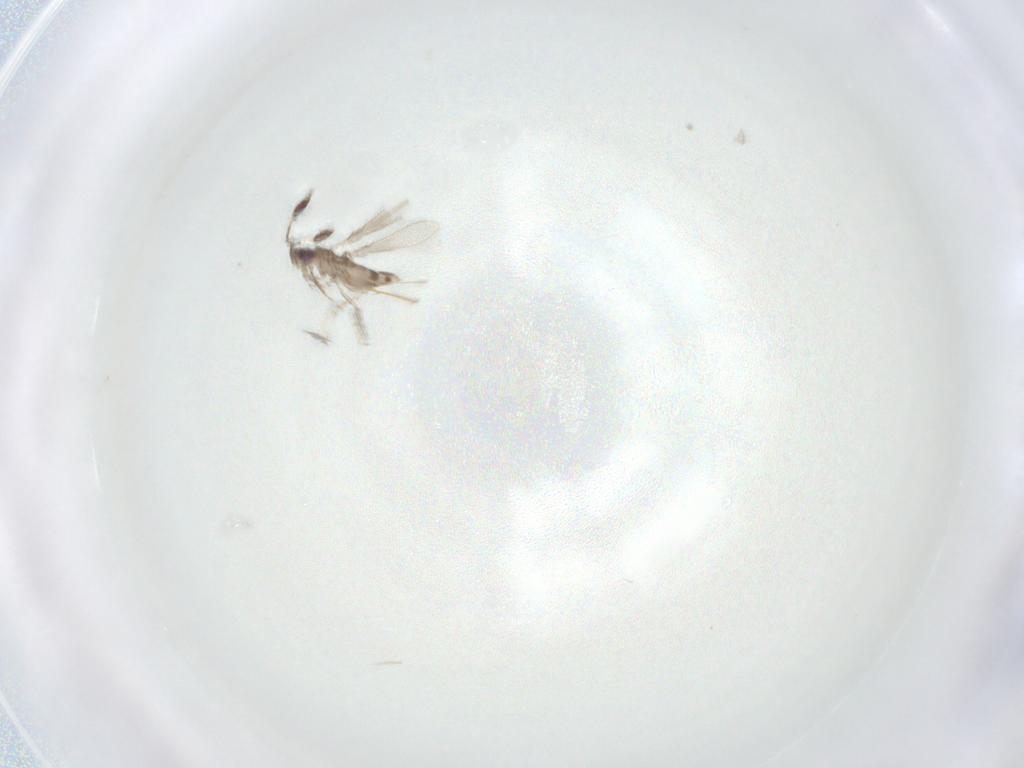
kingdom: Animalia
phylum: Arthropoda
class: Insecta
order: Hymenoptera
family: Mymaridae
